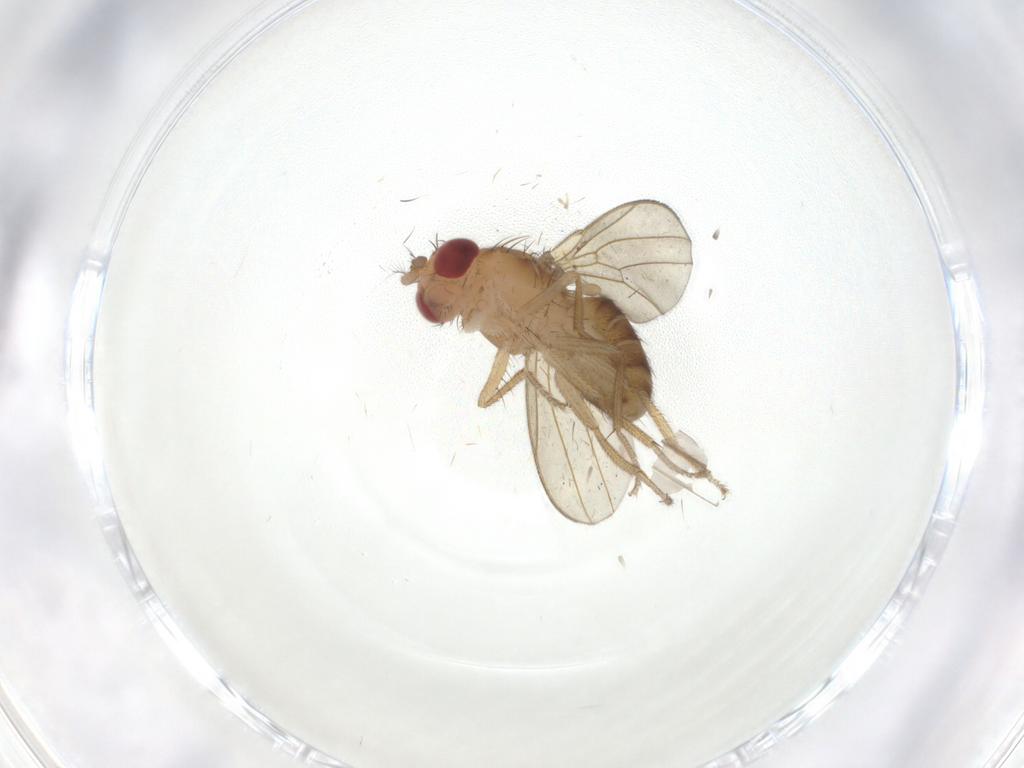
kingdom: Animalia
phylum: Arthropoda
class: Insecta
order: Diptera
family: Drosophilidae
